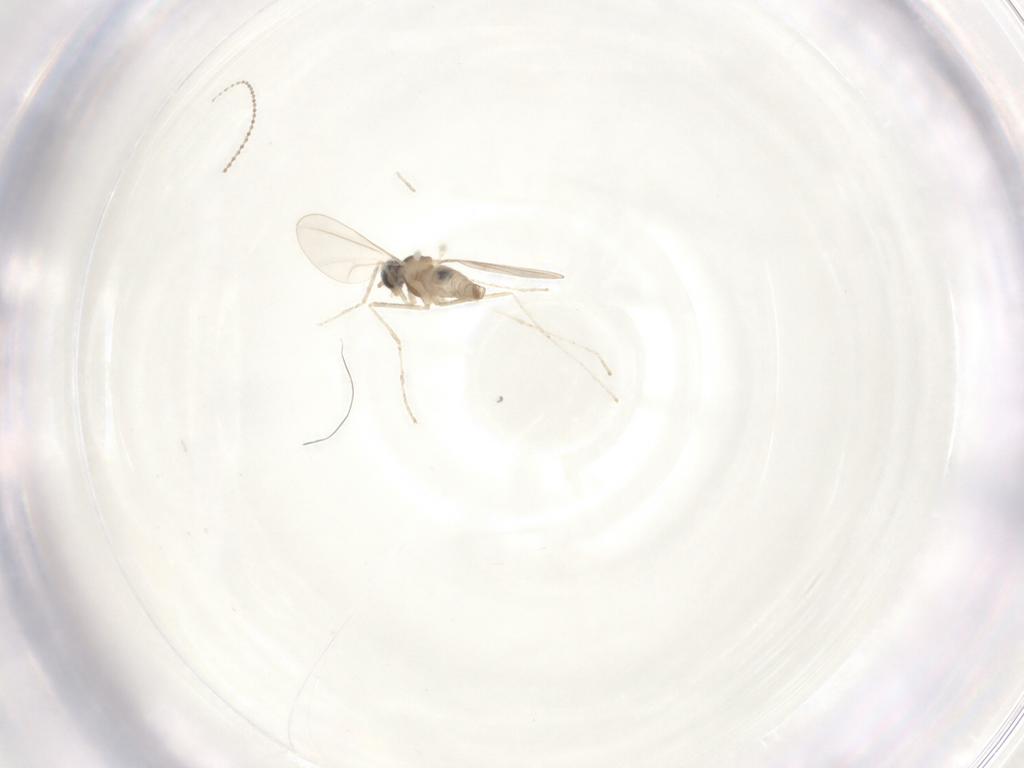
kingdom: Animalia
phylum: Arthropoda
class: Insecta
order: Diptera
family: Cecidomyiidae
